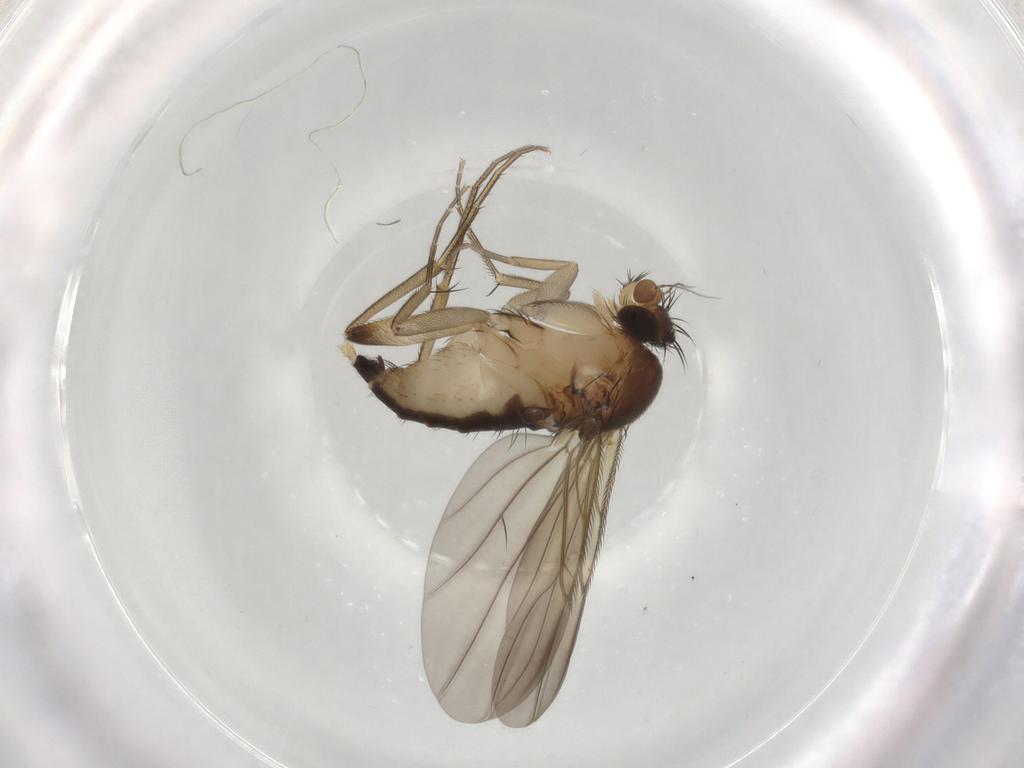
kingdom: Animalia
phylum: Arthropoda
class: Insecta
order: Diptera
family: Phoridae
